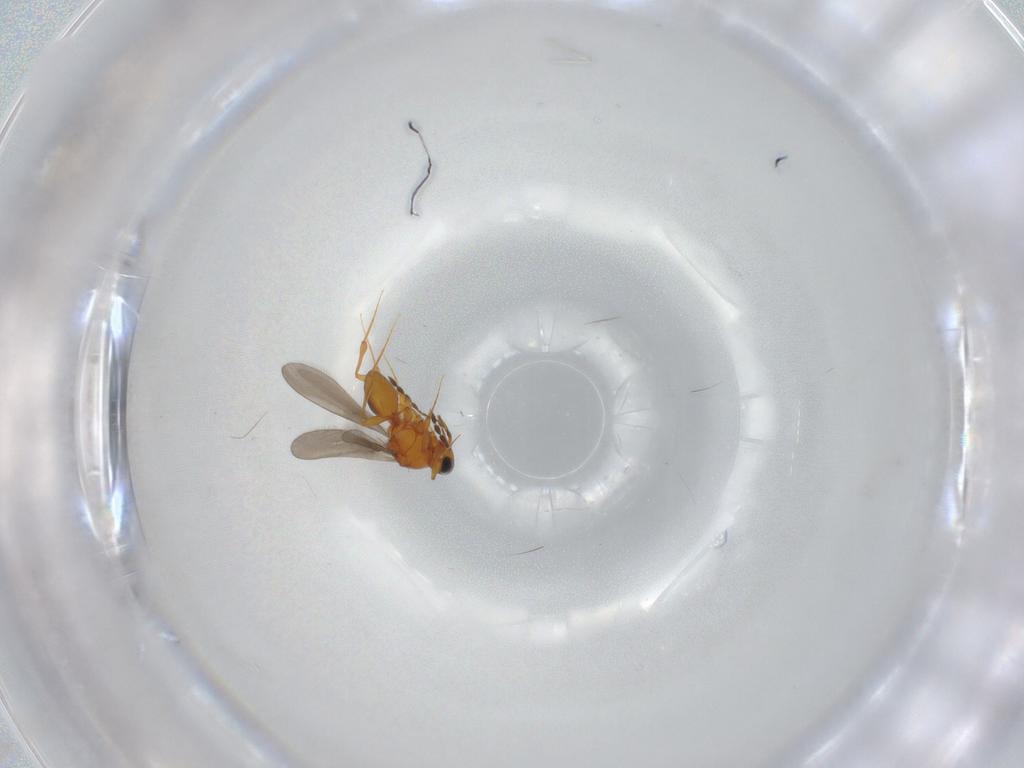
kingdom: Animalia
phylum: Arthropoda
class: Insecta
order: Hymenoptera
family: Platygastridae
